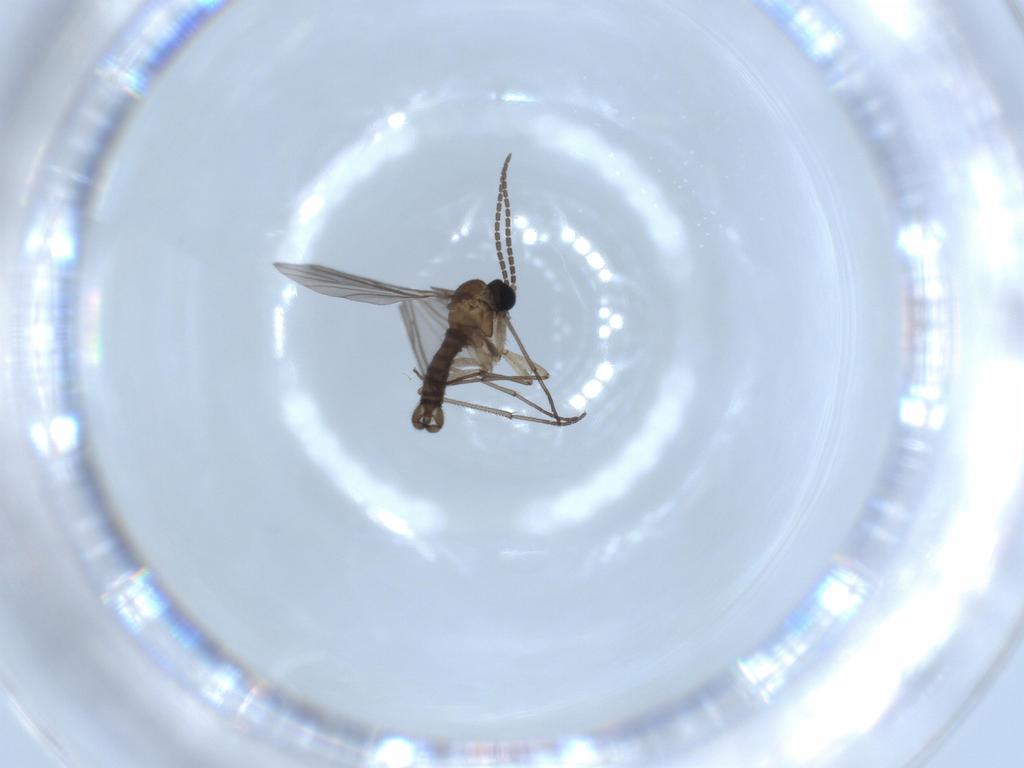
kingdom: Animalia
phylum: Arthropoda
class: Insecta
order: Diptera
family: Sciaridae
